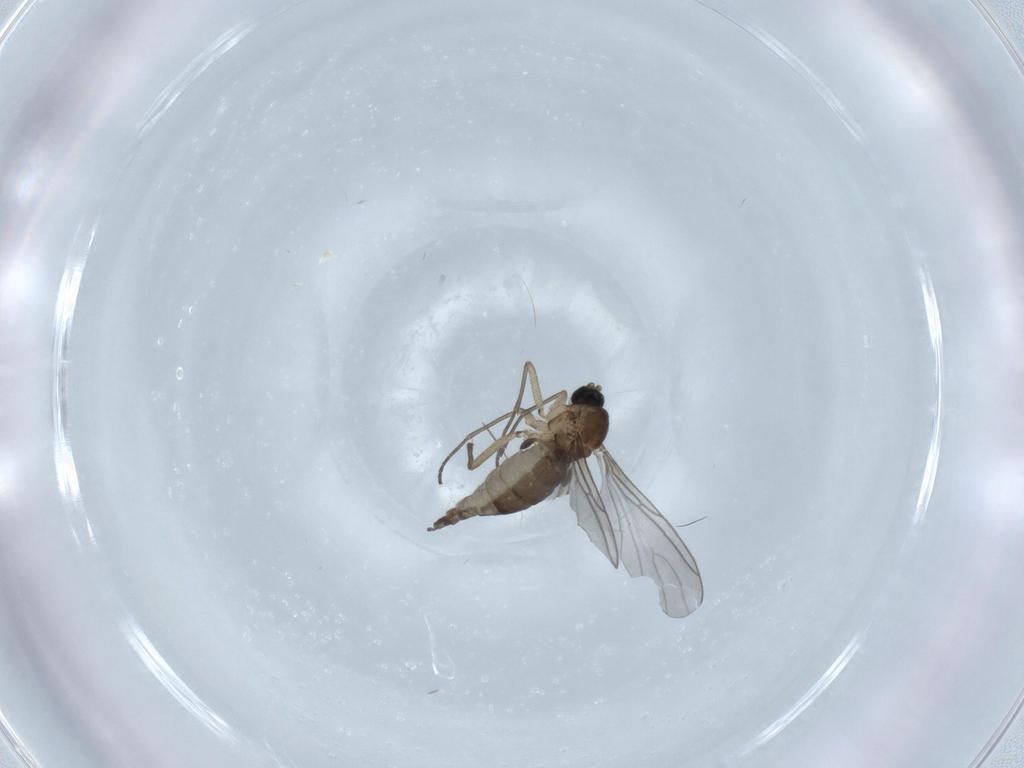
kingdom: Animalia
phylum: Arthropoda
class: Insecta
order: Diptera
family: Sciaridae
